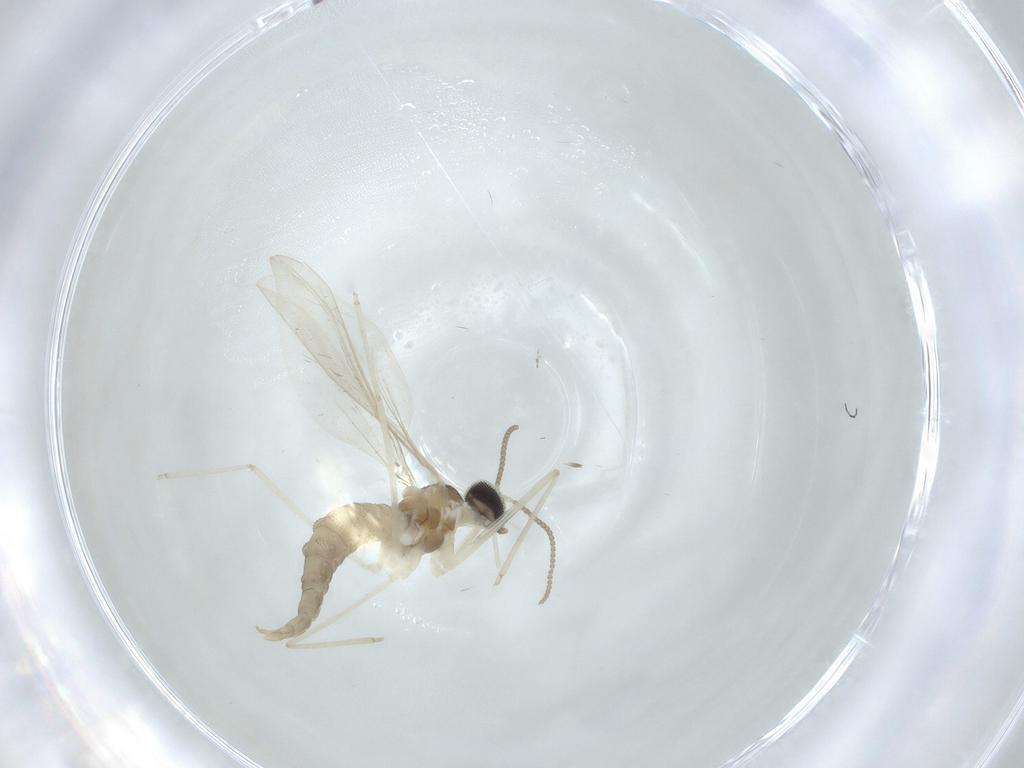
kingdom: Animalia
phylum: Arthropoda
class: Insecta
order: Diptera
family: Cecidomyiidae
